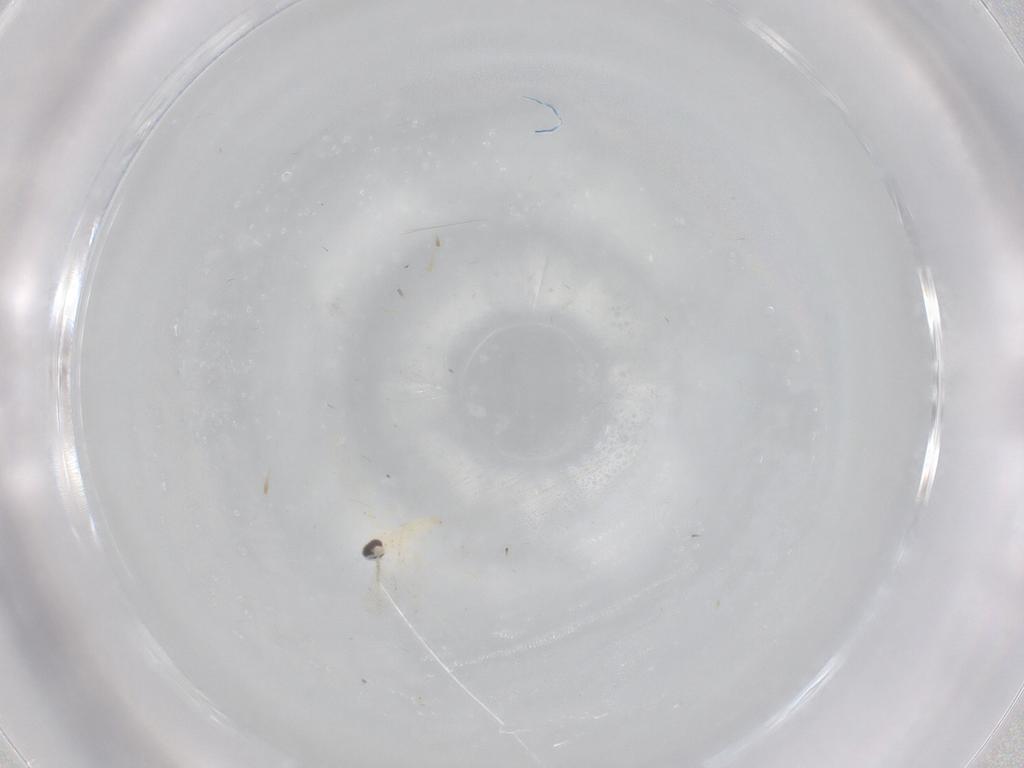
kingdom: Animalia
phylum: Arthropoda
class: Insecta
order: Diptera
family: Cecidomyiidae
